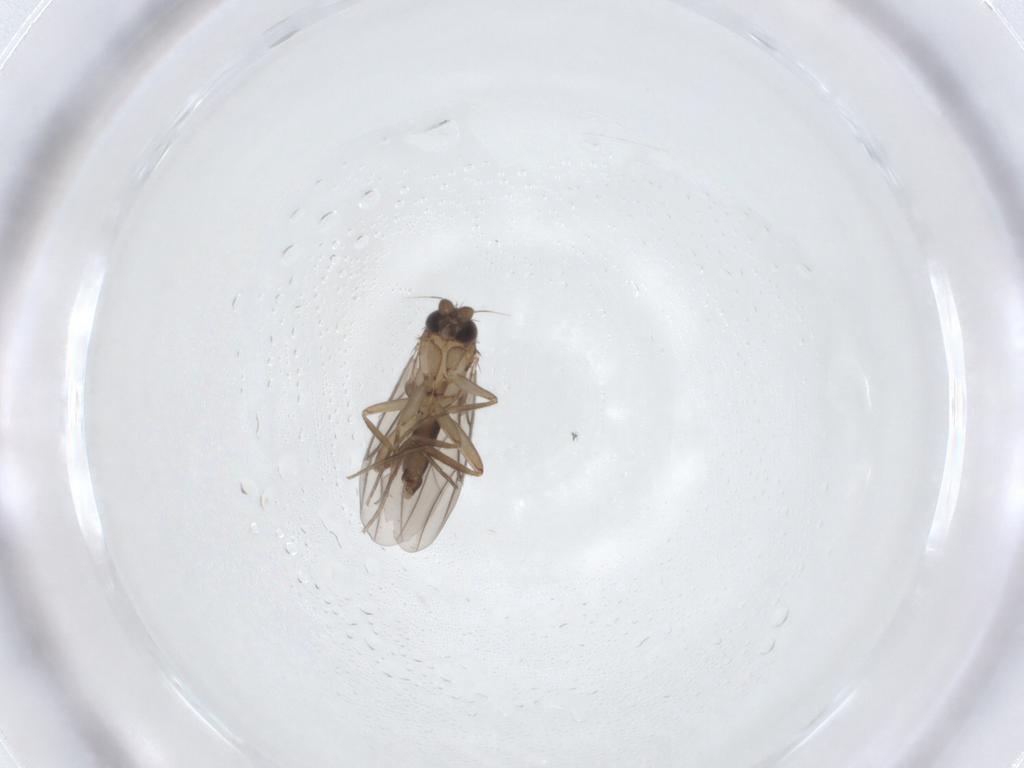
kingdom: Animalia
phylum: Arthropoda
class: Insecta
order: Diptera
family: Phoridae
